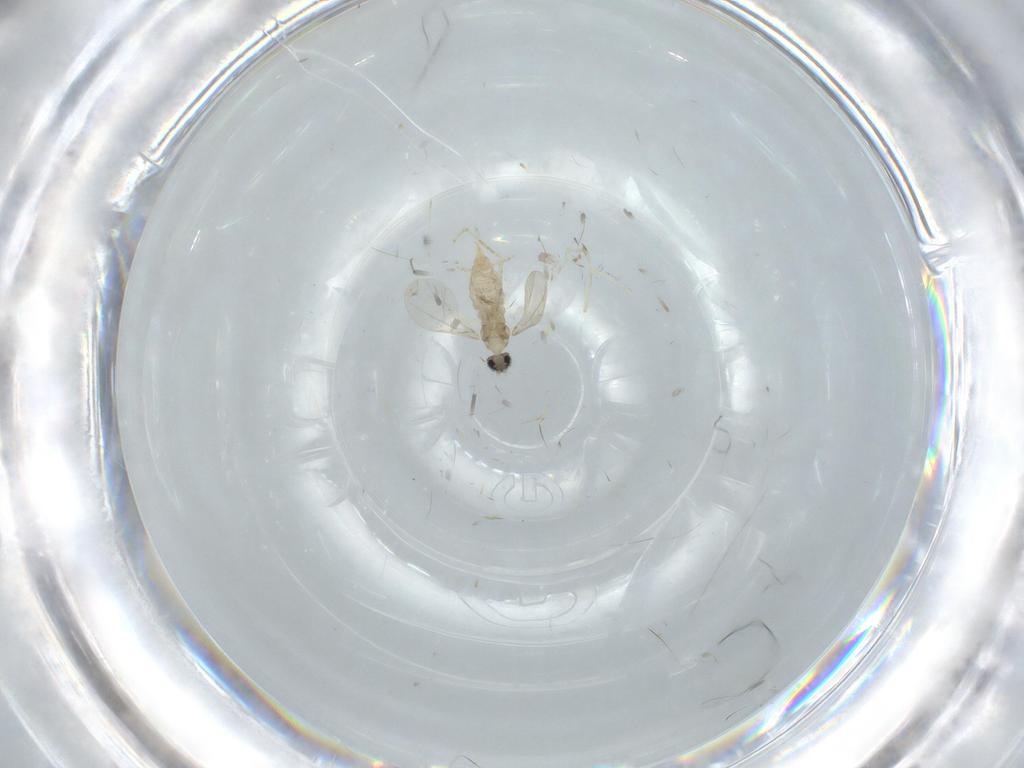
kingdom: Animalia
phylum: Arthropoda
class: Insecta
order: Diptera
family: Cecidomyiidae
